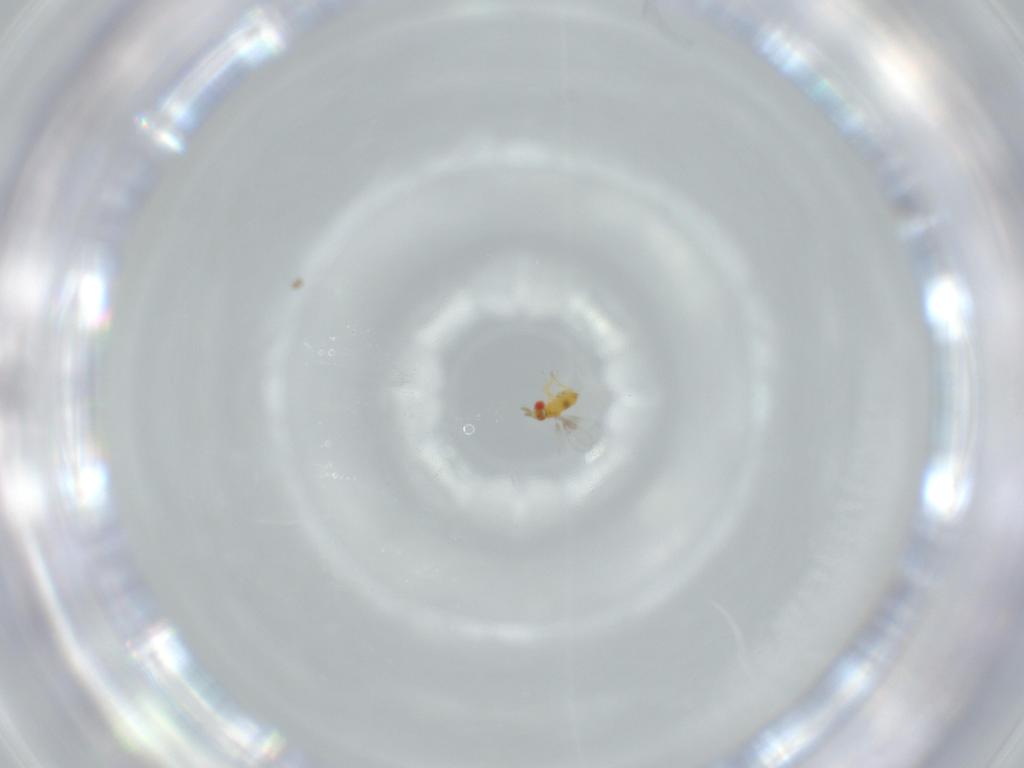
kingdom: Animalia
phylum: Arthropoda
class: Insecta
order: Hymenoptera
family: Trichogrammatidae
